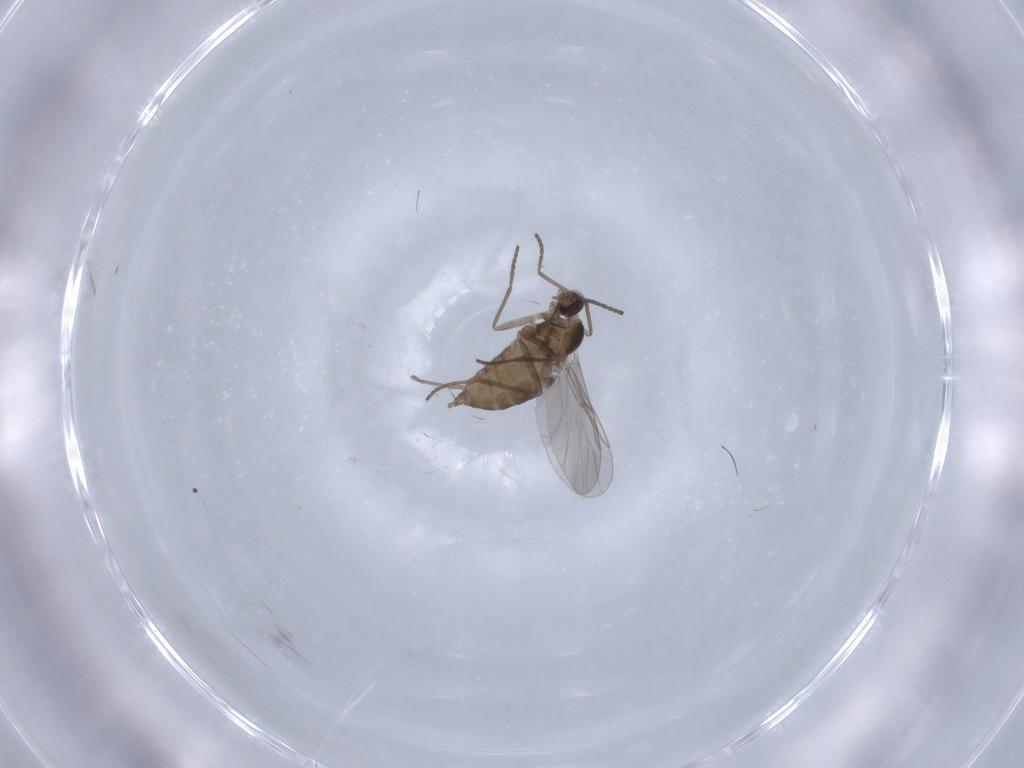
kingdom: Animalia
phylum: Arthropoda
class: Insecta
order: Diptera
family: Cecidomyiidae
